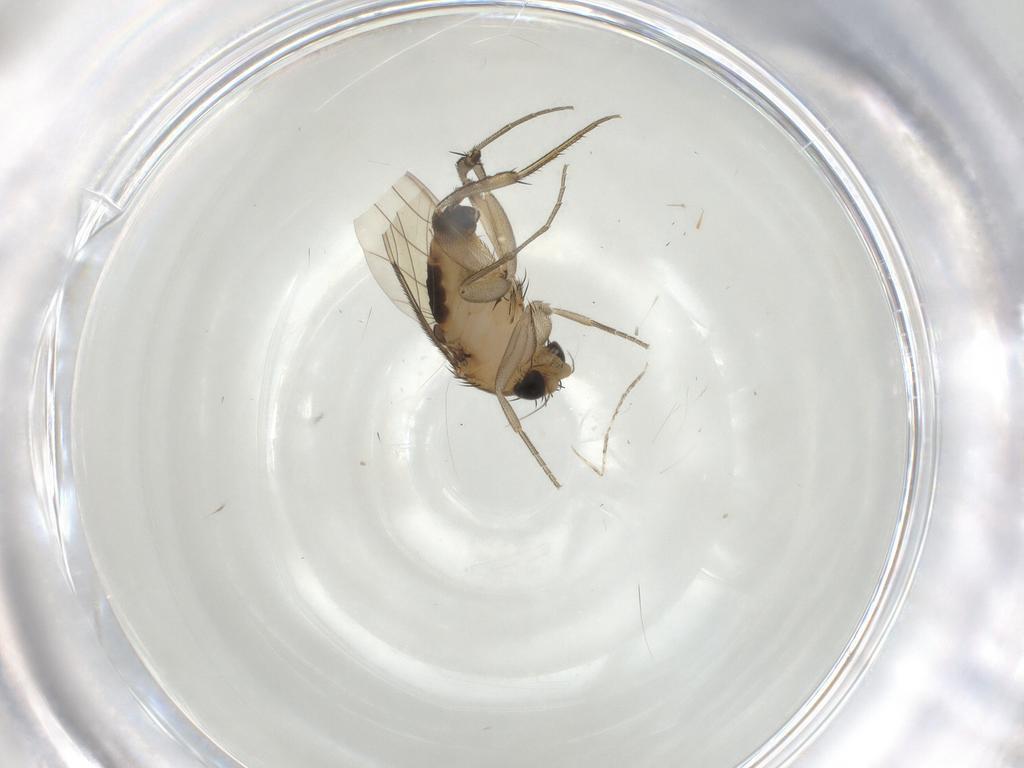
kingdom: Animalia
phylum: Arthropoda
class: Insecta
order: Diptera
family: Phoridae
